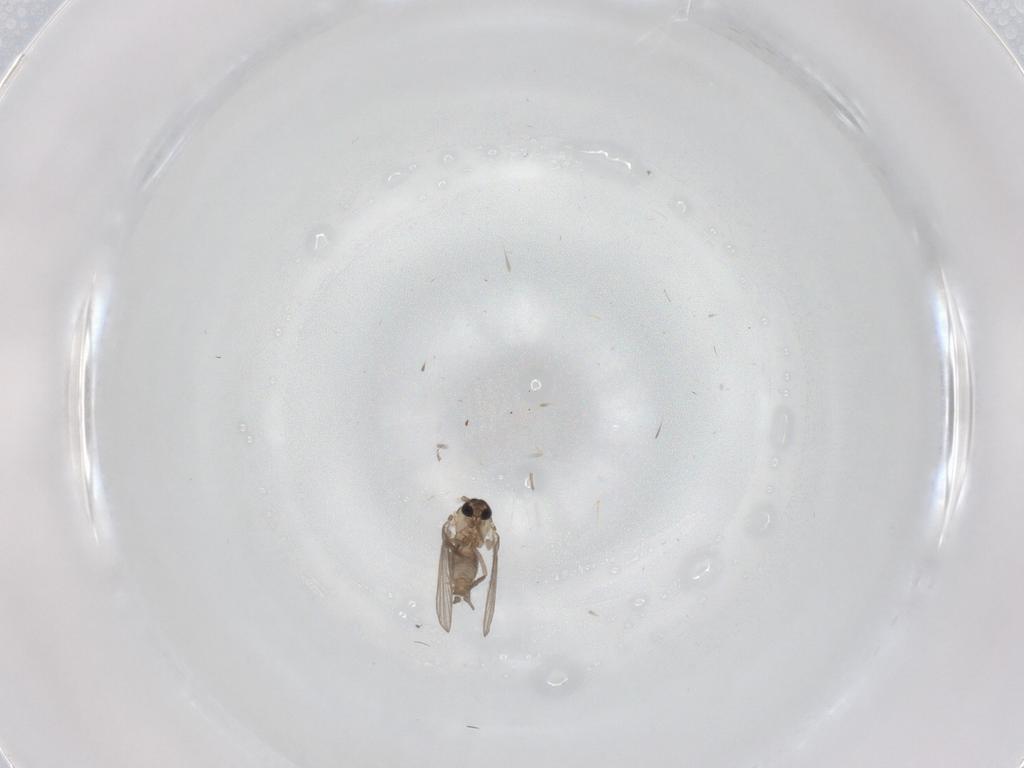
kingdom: Animalia
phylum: Arthropoda
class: Insecta
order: Diptera
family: Psychodidae
